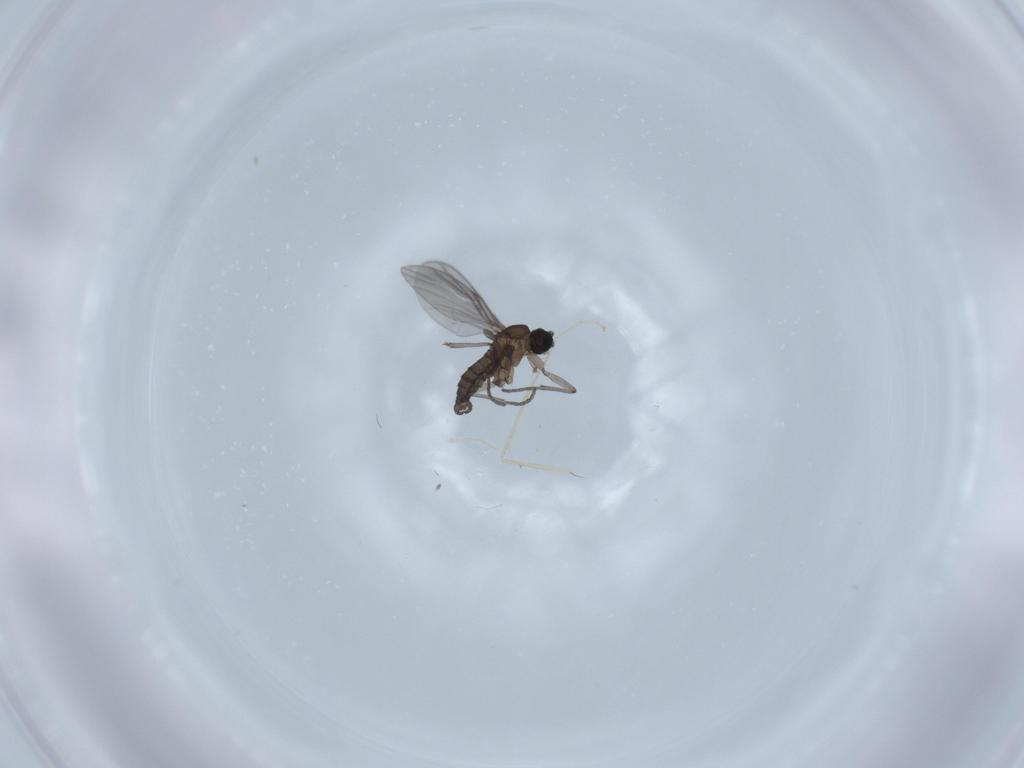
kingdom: Animalia
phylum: Arthropoda
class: Insecta
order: Diptera
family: Cecidomyiidae
